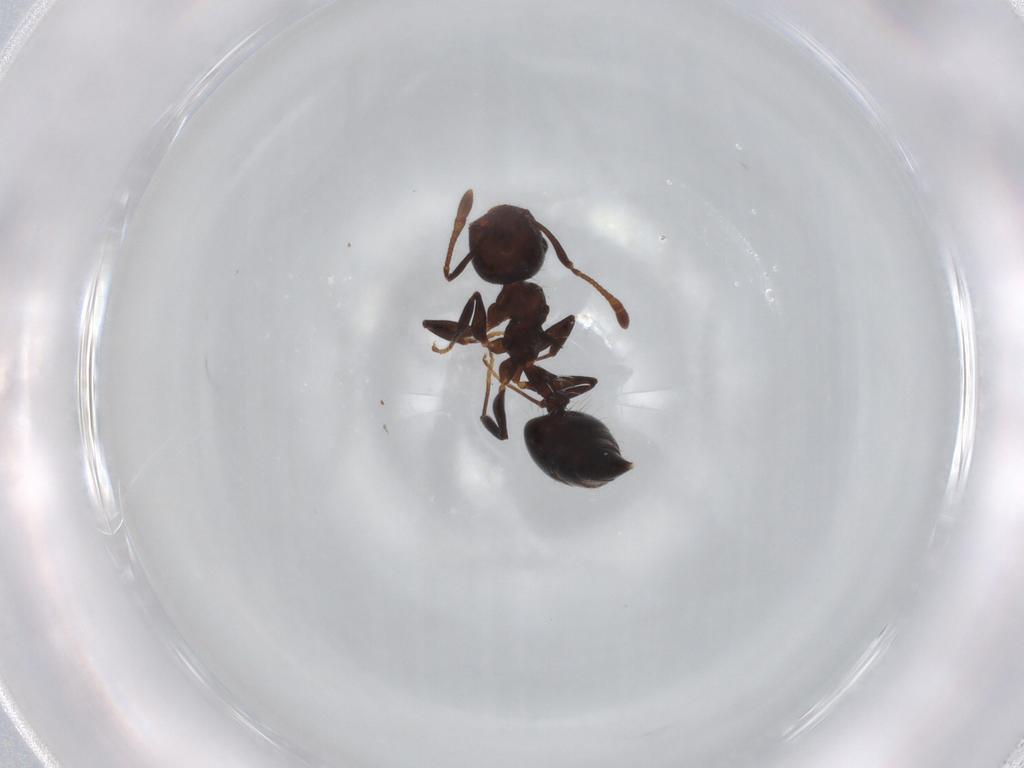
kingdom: Animalia
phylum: Arthropoda
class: Insecta
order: Hymenoptera
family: Formicidae
